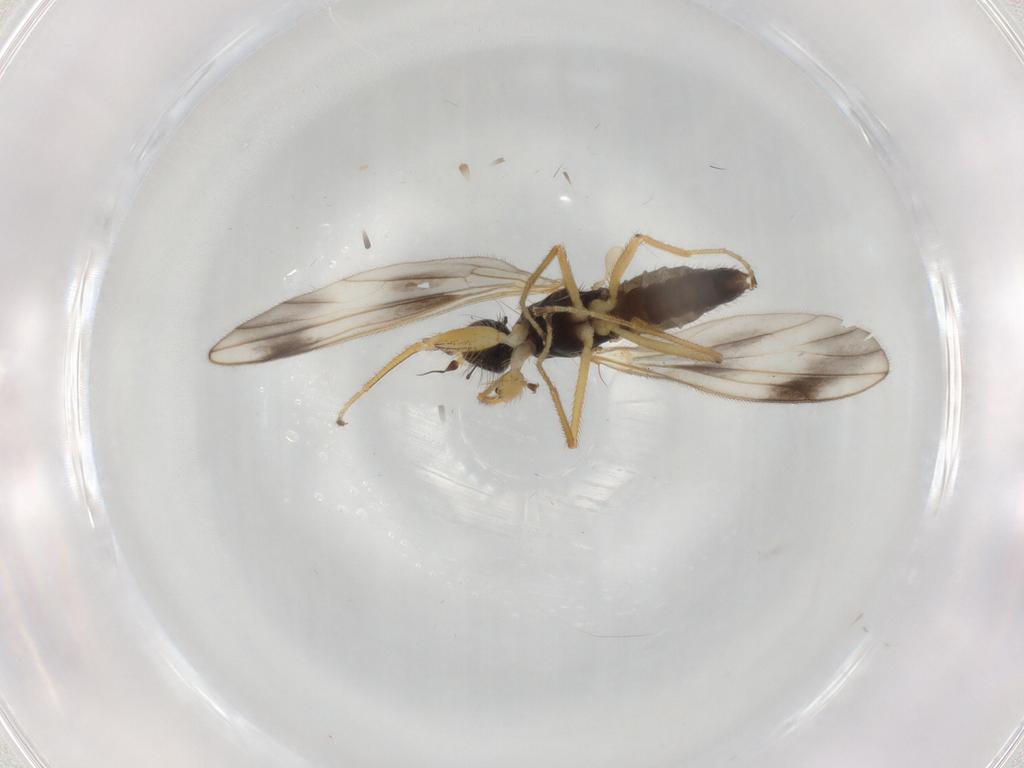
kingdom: Animalia
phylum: Arthropoda
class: Insecta
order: Diptera
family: Empididae
